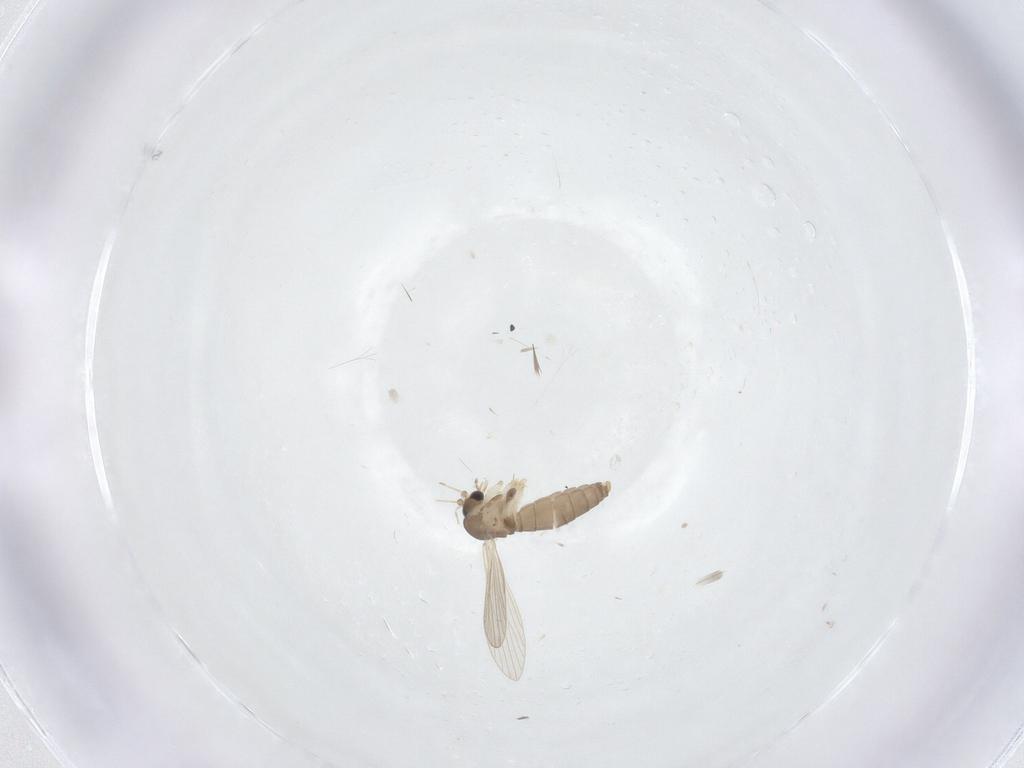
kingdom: Animalia
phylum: Arthropoda
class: Insecta
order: Diptera
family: Psychodidae
